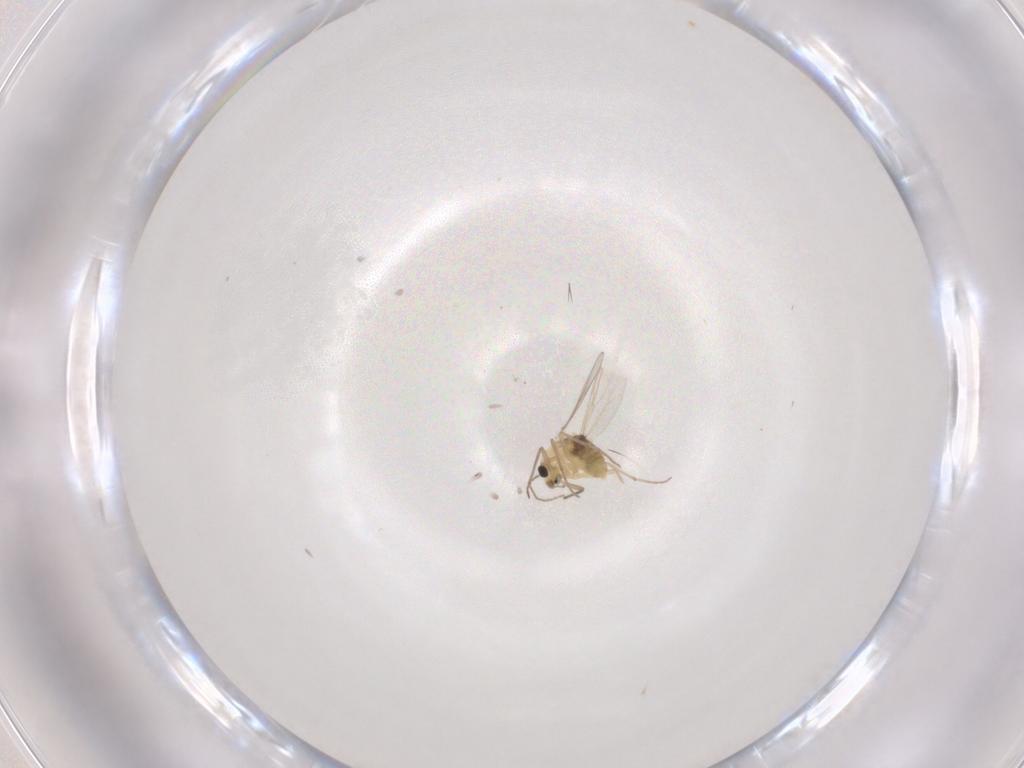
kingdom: Animalia
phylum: Arthropoda
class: Insecta
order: Diptera
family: Chironomidae
